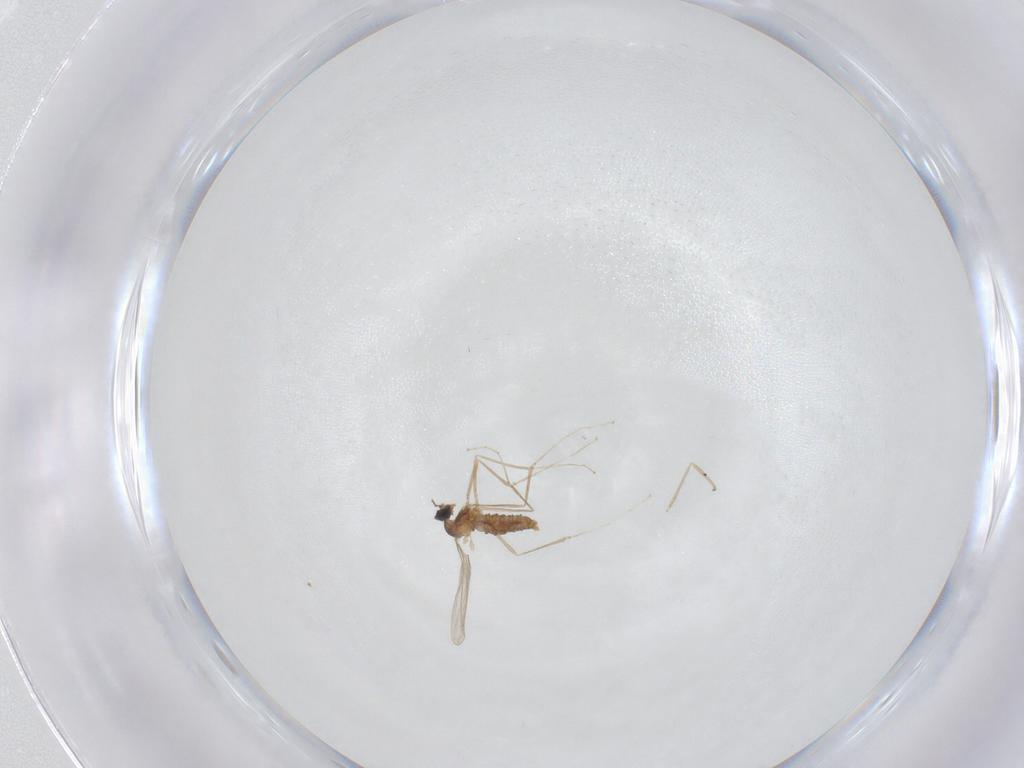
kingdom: Animalia
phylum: Arthropoda
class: Insecta
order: Diptera
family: Cecidomyiidae
